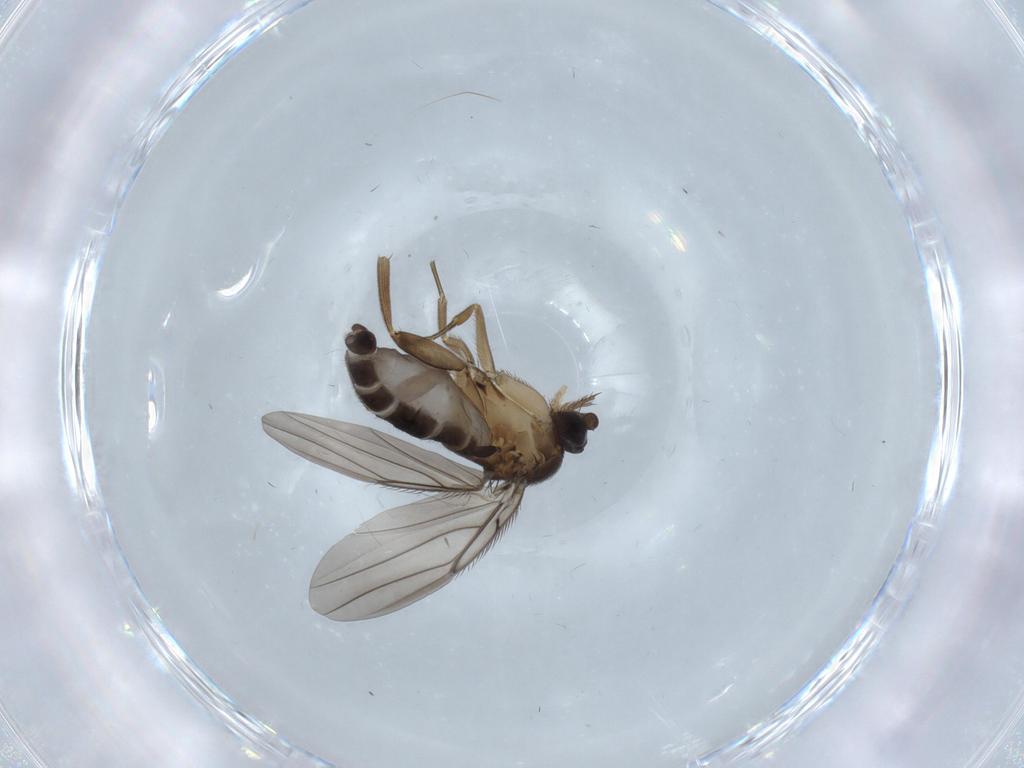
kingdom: Animalia
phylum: Arthropoda
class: Insecta
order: Diptera
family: Phoridae
